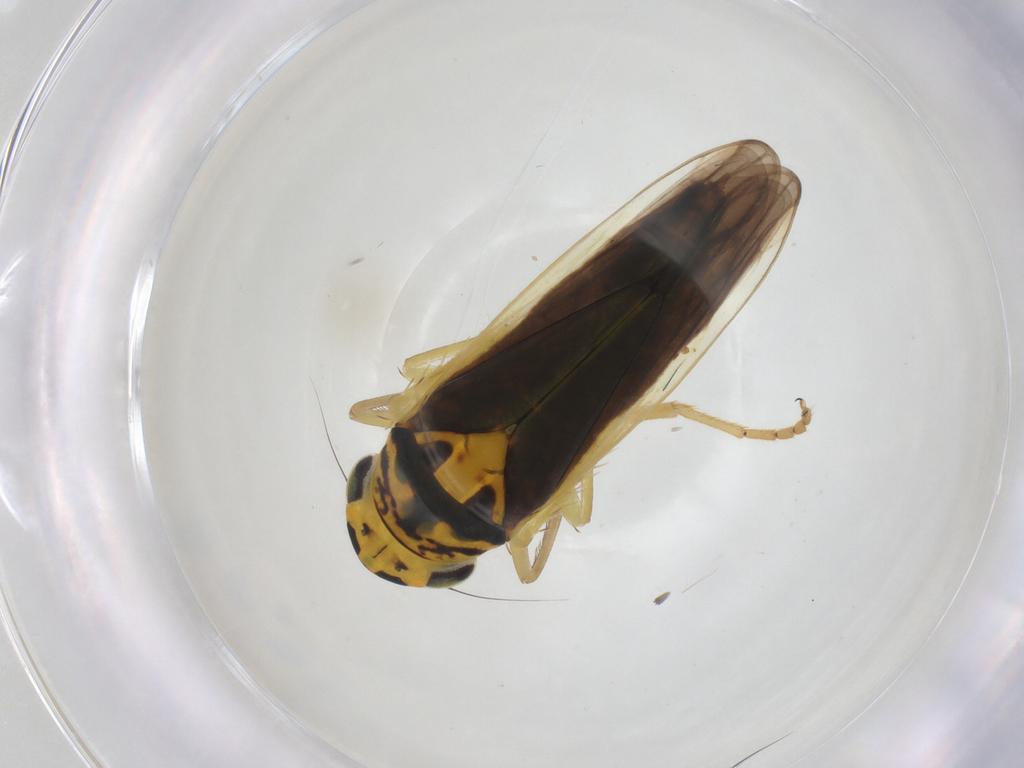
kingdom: Animalia
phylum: Arthropoda
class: Insecta
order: Hemiptera
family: Cicadellidae
